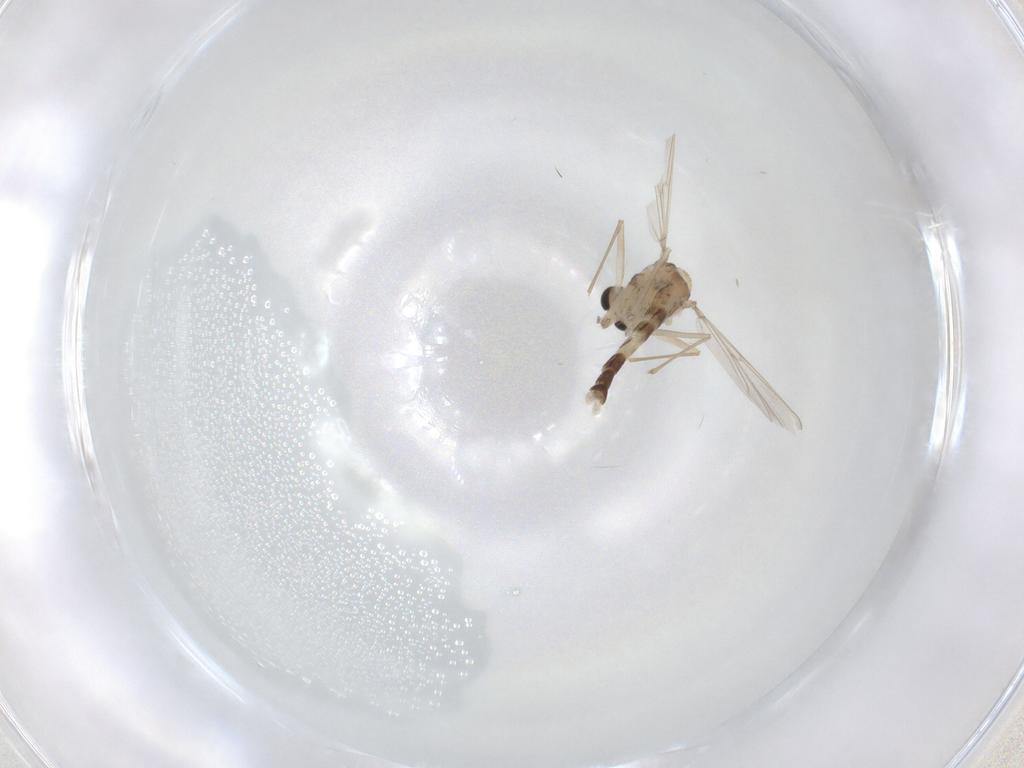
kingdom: Animalia
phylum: Arthropoda
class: Insecta
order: Diptera
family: Chironomidae
